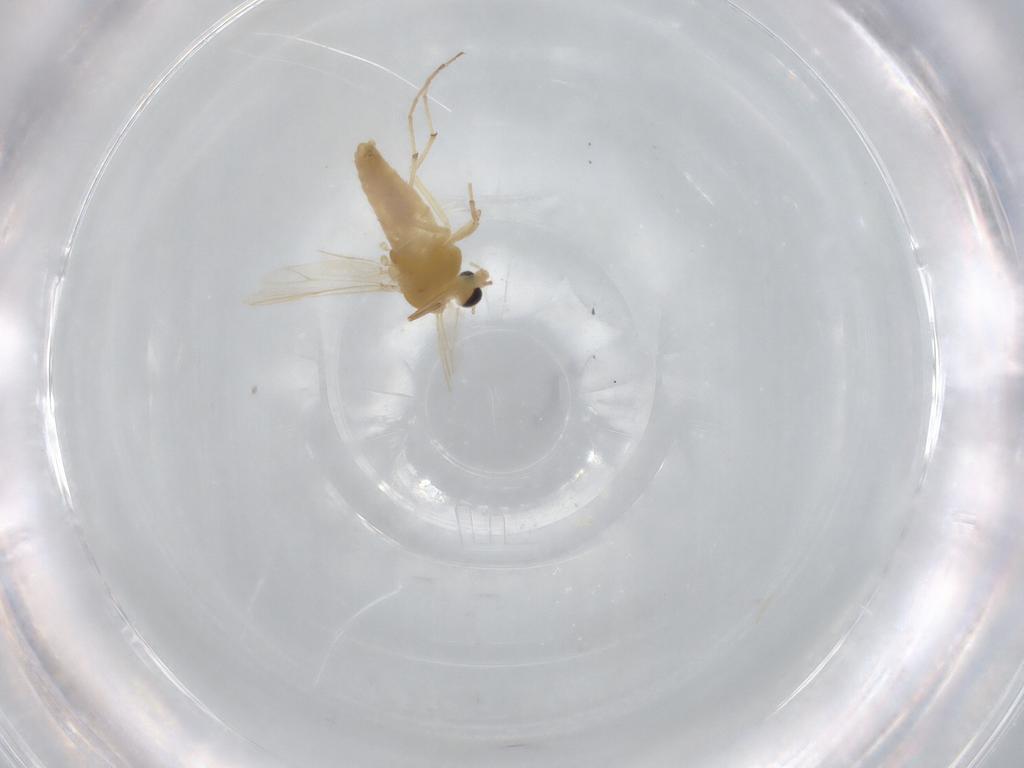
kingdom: Animalia
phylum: Arthropoda
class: Insecta
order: Diptera
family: Chironomidae
